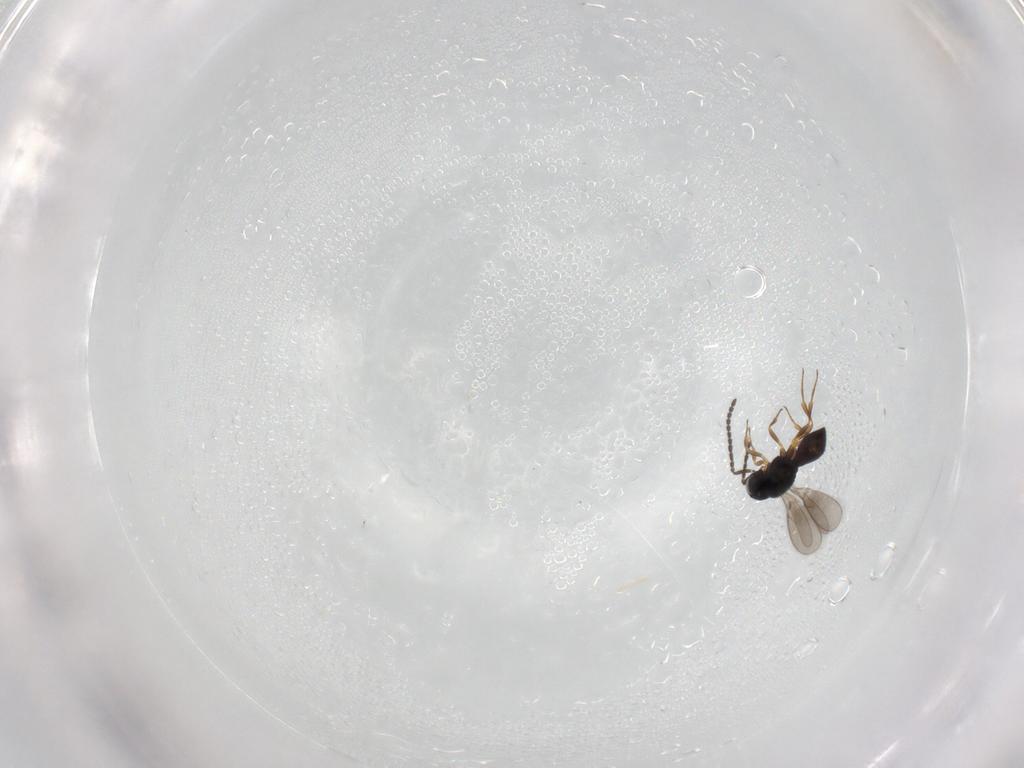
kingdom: Animalia
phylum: Arthropoda
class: Insecta
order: Hymenoptera
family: Scelionidae
